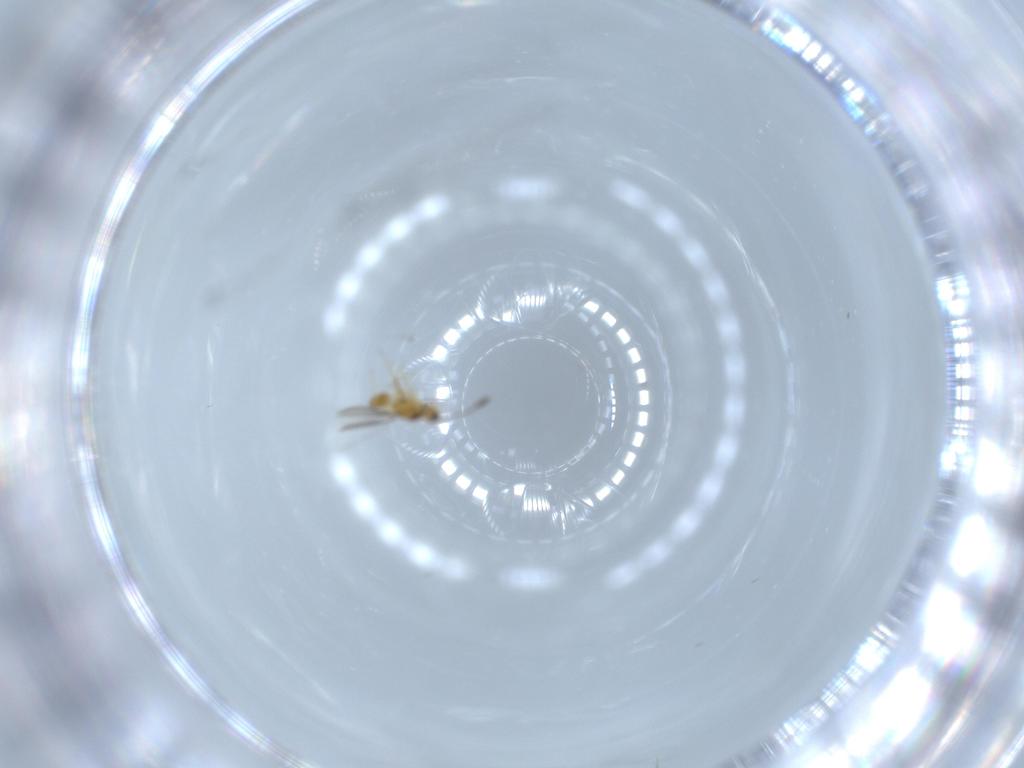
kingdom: Animalia
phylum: Arthropoda
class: Insecta
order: Hymenoptera
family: Mymaridae
